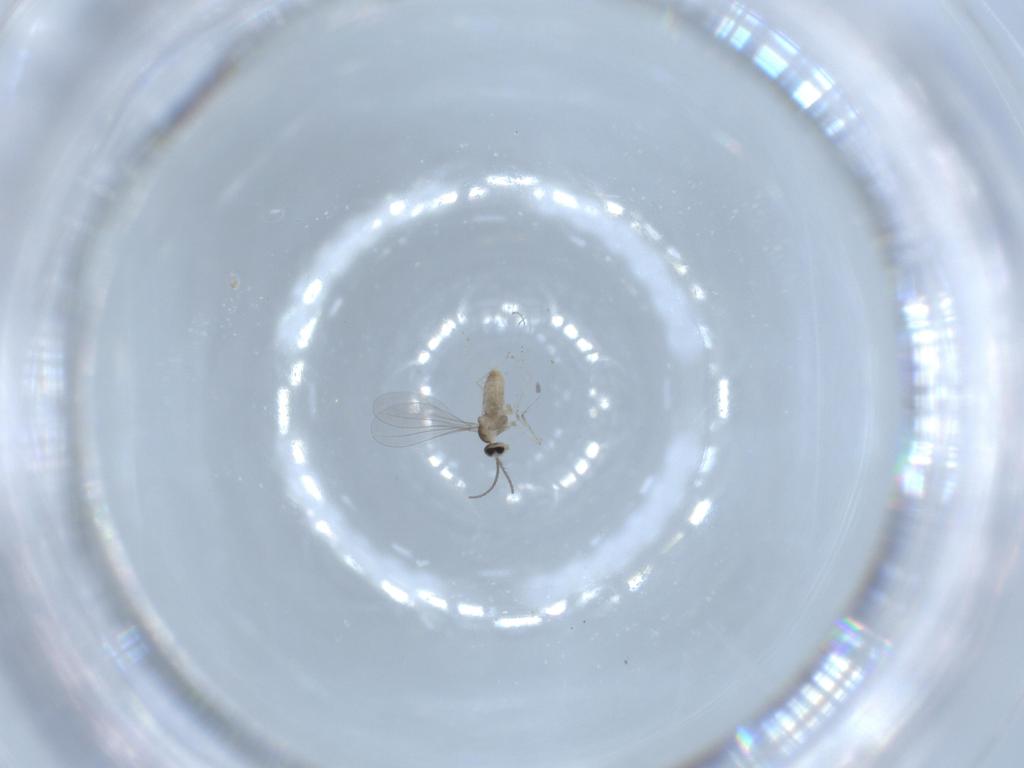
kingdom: Animalia
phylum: Arthropoda
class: Insecta
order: Diptera
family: Cecidomyiidae
